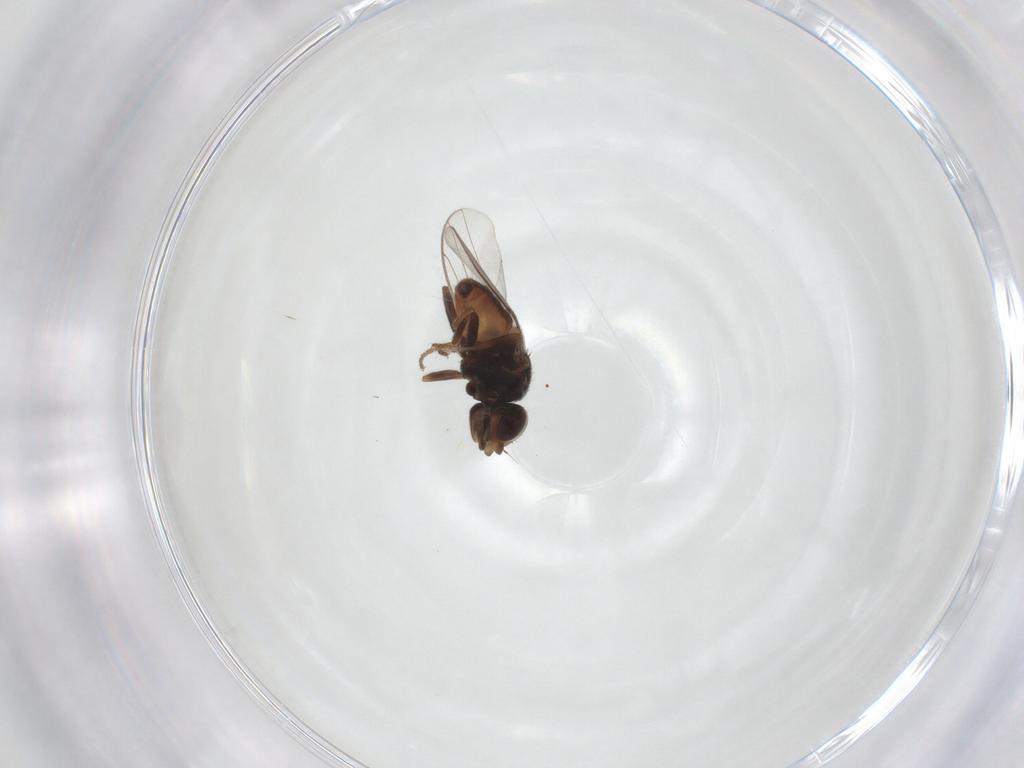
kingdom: Animalia
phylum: Arthropoda
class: Insecta
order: Diptera
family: Chloropidae
